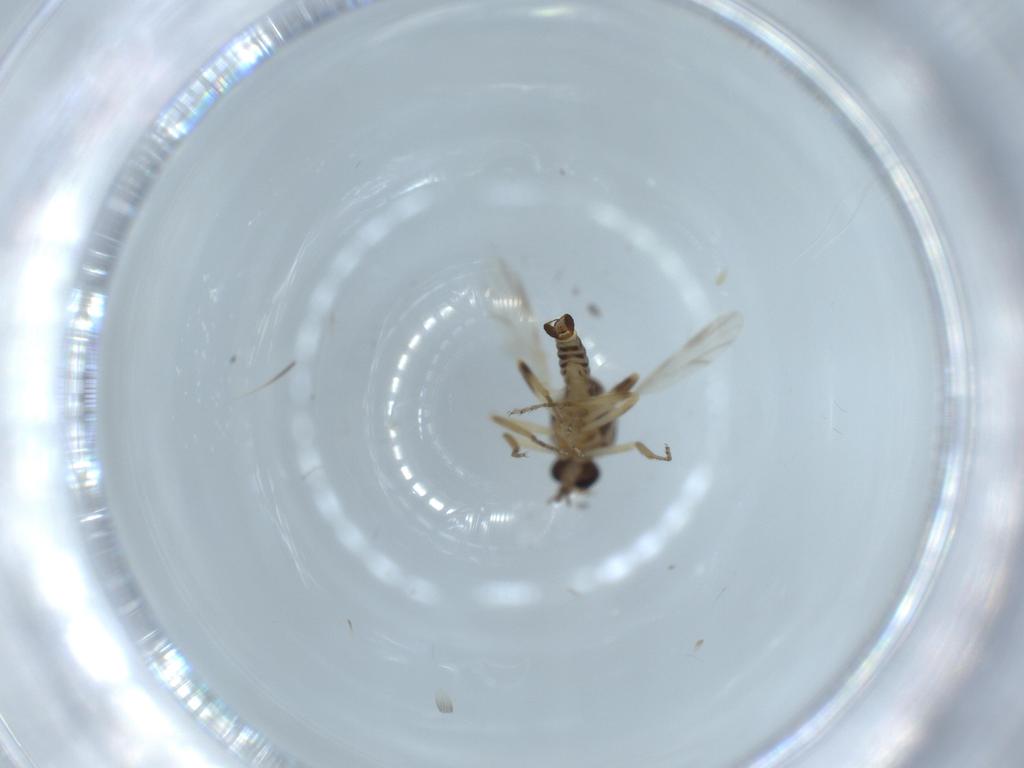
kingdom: Animalia
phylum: Arthropoda
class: Insecta
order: Diptera
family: Ceratopogonidae
